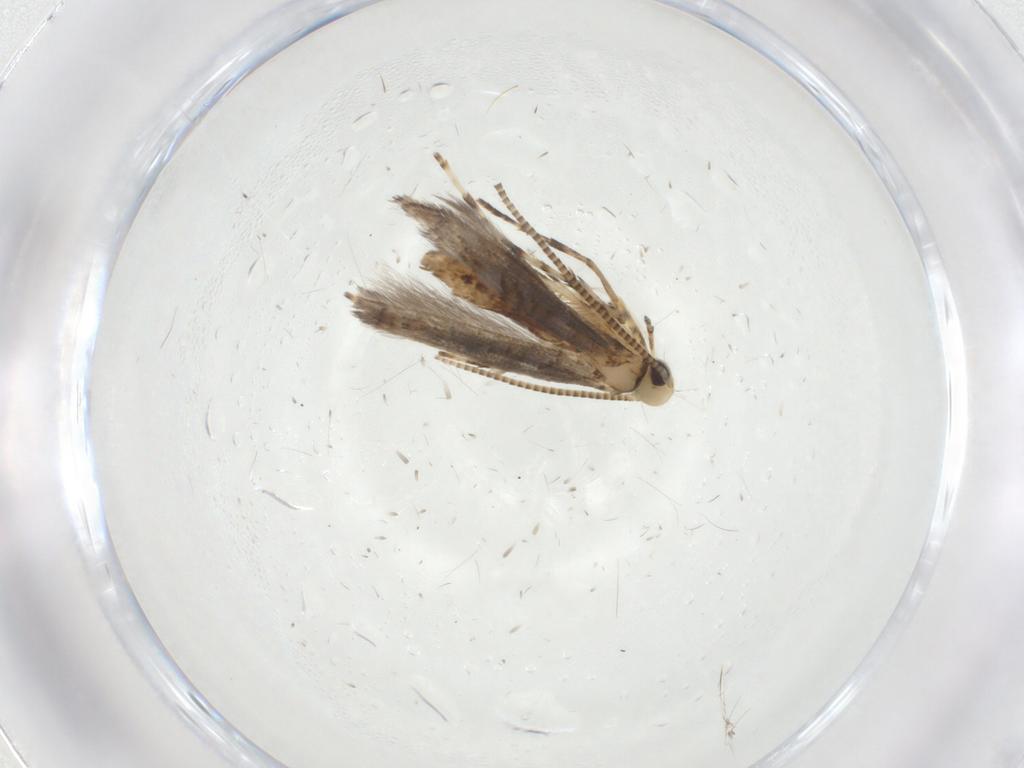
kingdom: Animalia
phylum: Arthropoda
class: Insecta
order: Lepidoptera
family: Gracillariidae
